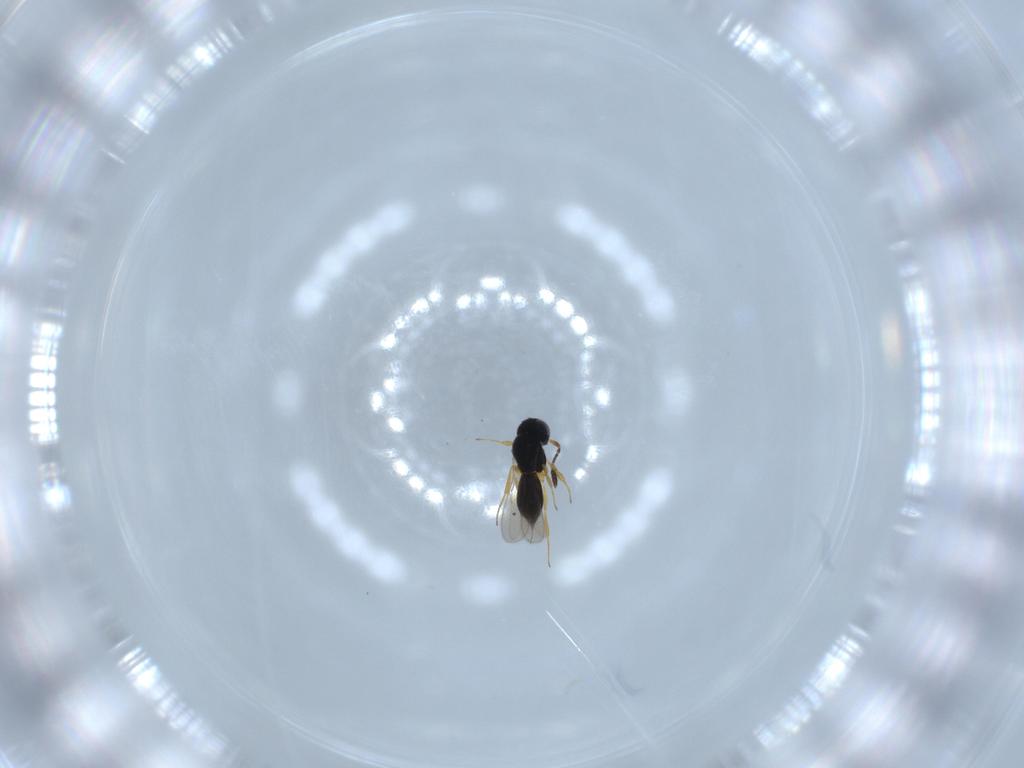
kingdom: Animalia
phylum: Arthropoda
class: Insecta
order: Hymenoptera
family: Scelionidae
